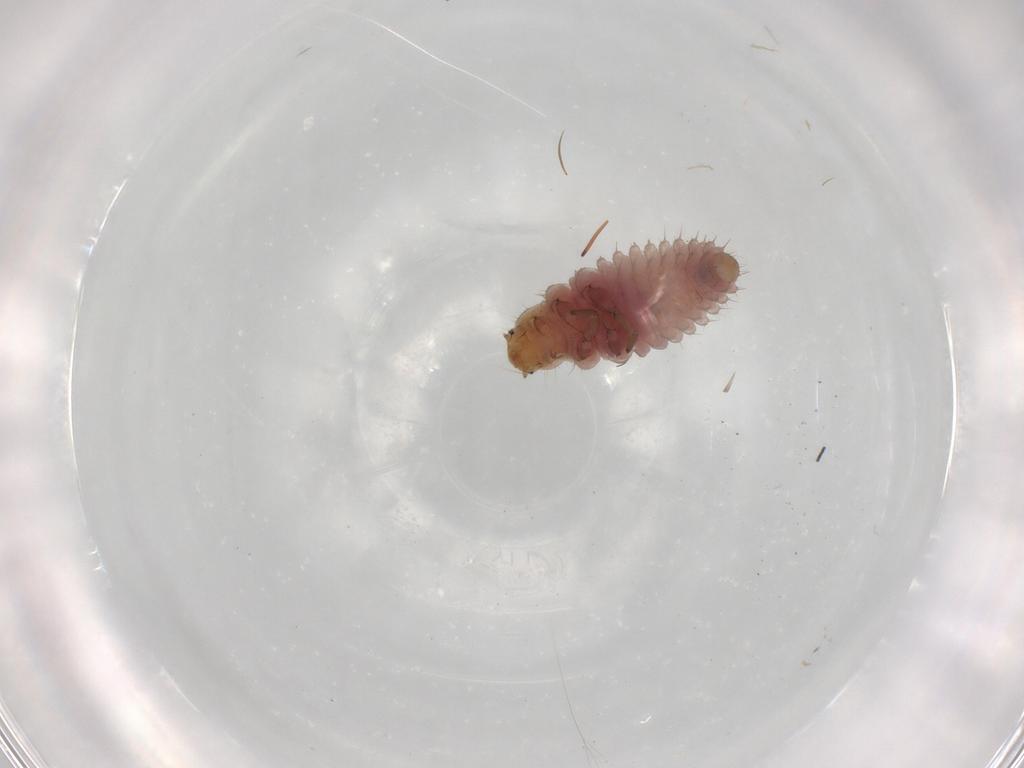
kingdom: Animalia
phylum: Arthropoda
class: Insecta
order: Coleoptera
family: Coccinellidae
